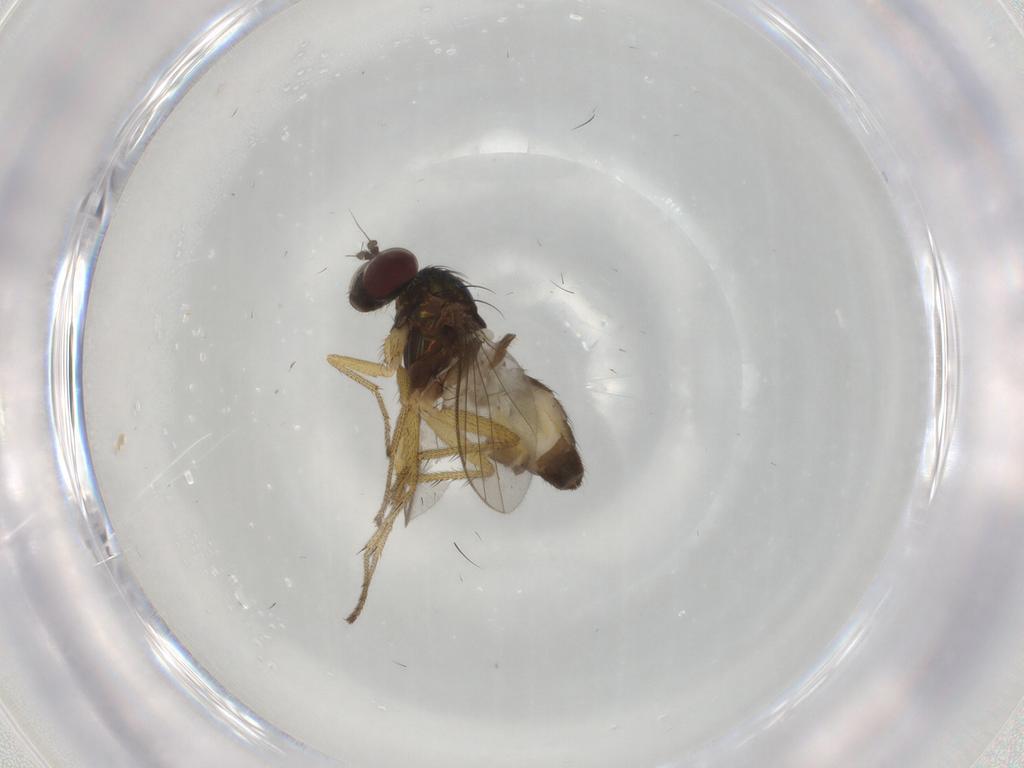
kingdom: Animalia
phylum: Arthropoda
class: Insecta
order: Diptera
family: Dolichopodidae
